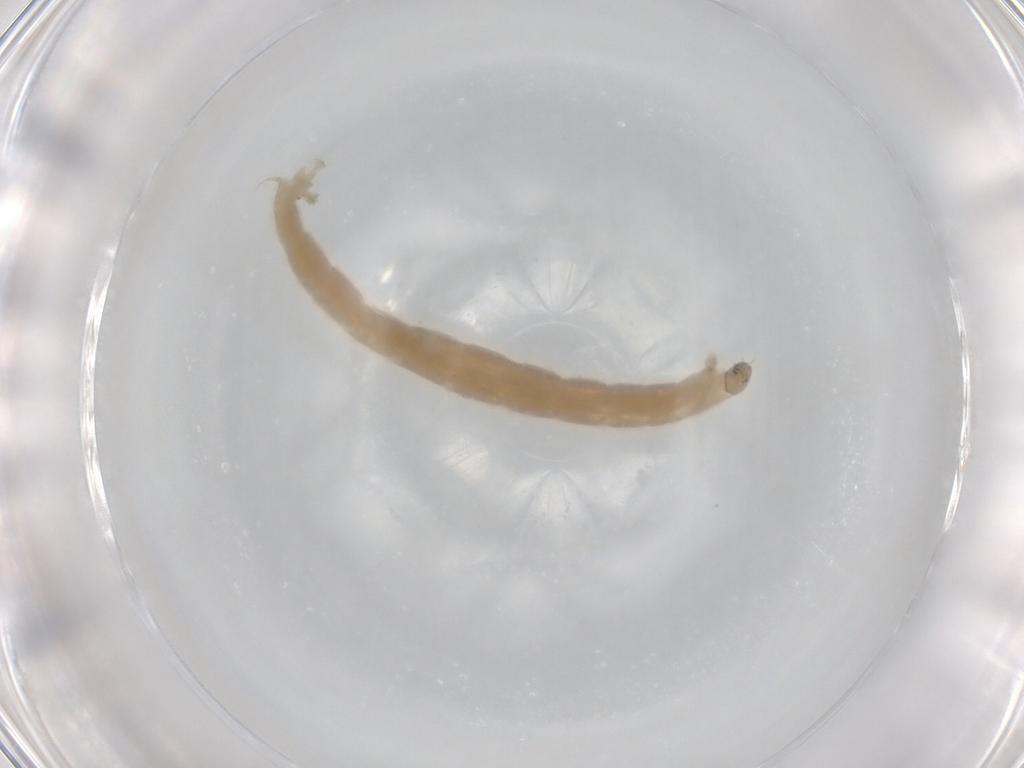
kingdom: Animalia
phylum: Arthropoda
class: Insecta
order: Diptera
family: Chironomidae
